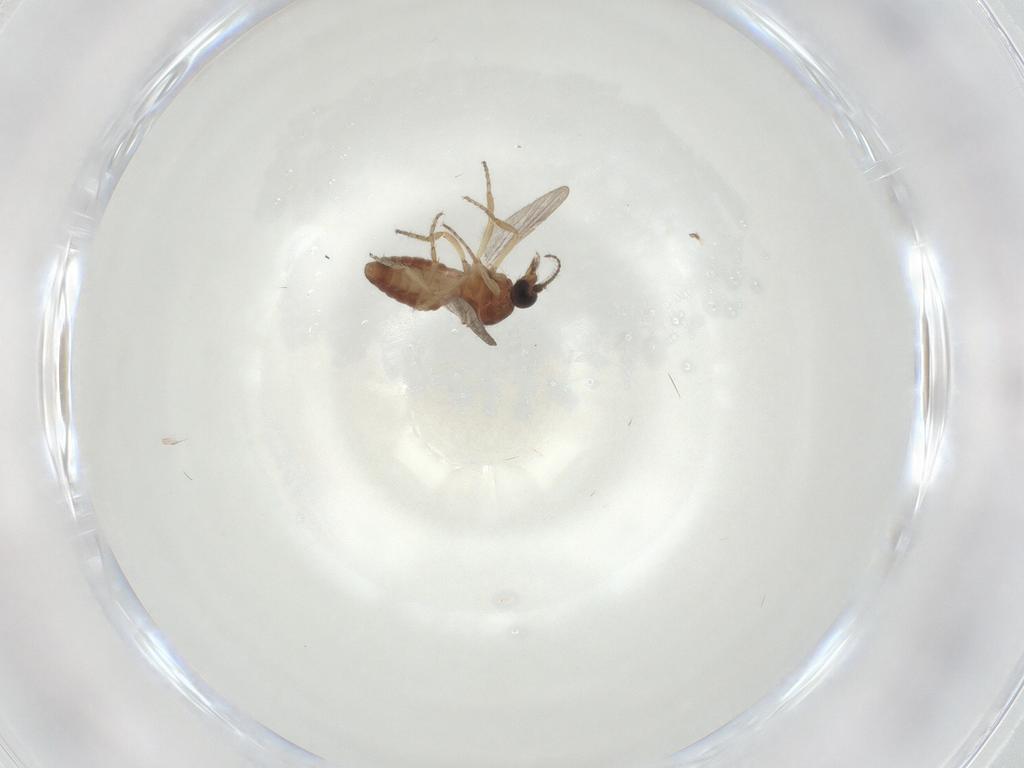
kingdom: Animalia
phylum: Arthropoda
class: Insecta
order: Diptera
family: Ceratopogonidae
